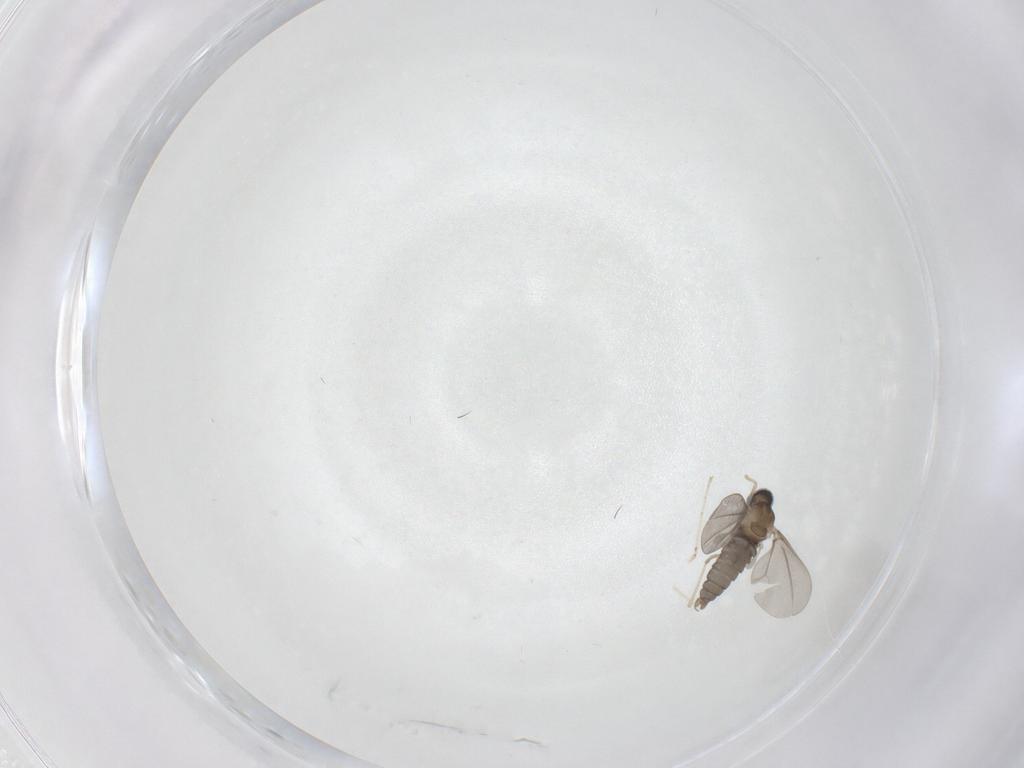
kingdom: Animalia
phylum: Arthropoda
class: Insecta
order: Diptera
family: Cecidomyiidae
